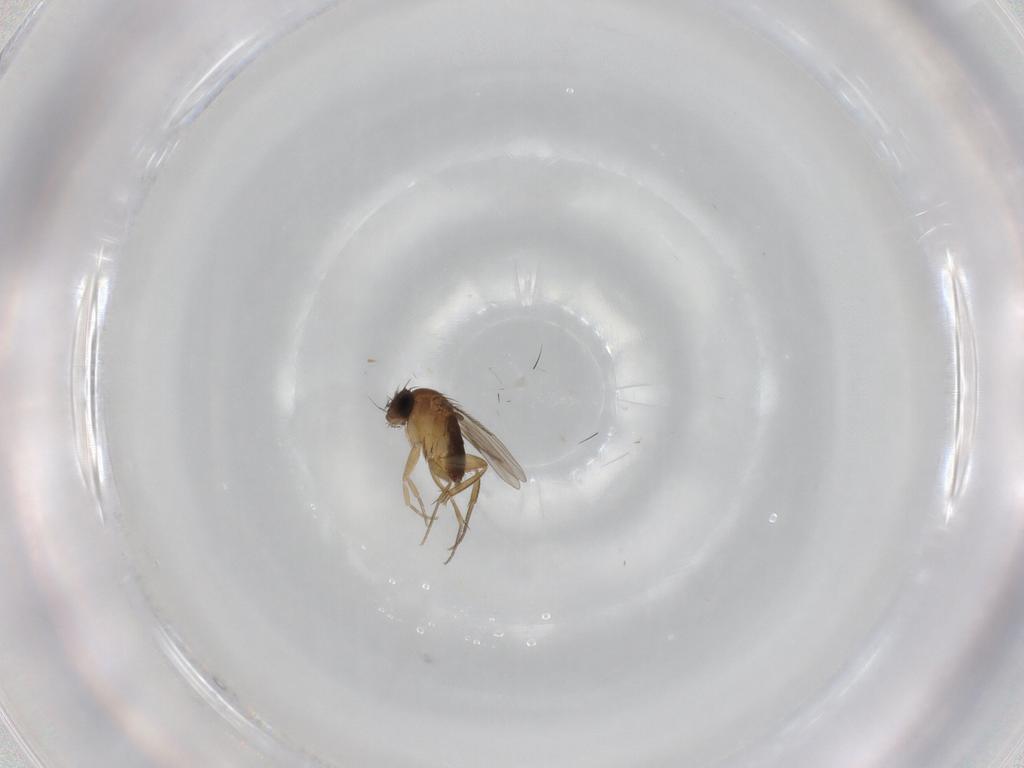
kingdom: Animalia
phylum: Arthropoda
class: Insecta
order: Diptera
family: Phoridae
